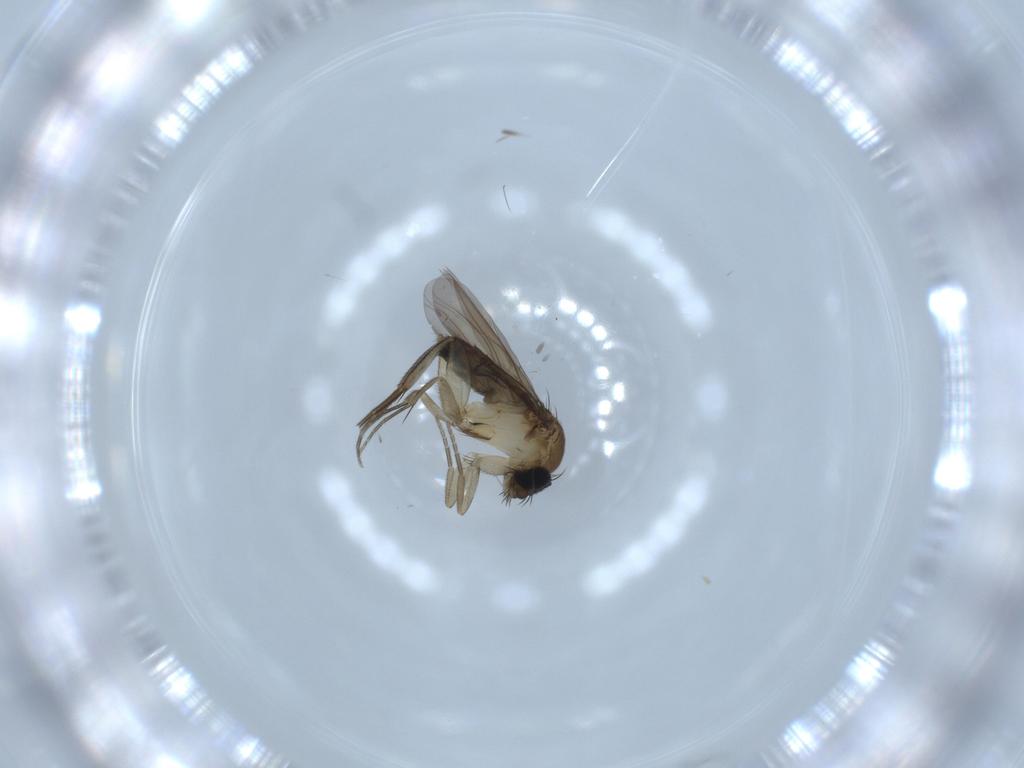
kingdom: Animalia
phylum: Arthropoda
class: Insecta
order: Diptera
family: Phoridae
